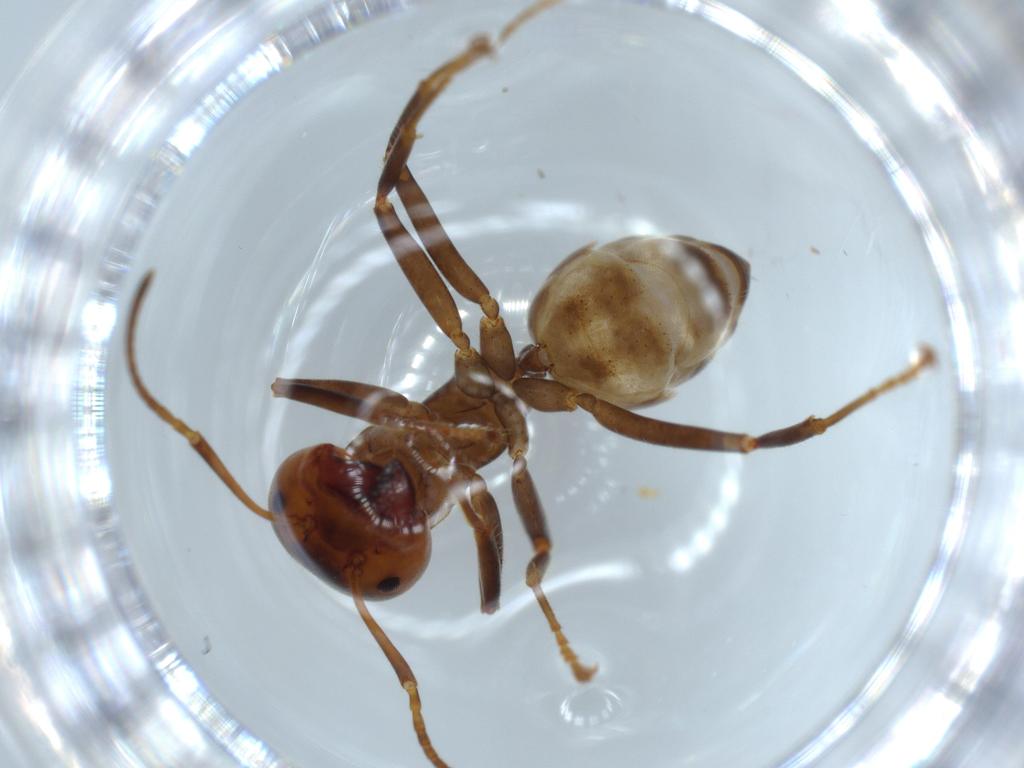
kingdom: Animalia
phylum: Arthropoda
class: Insecta
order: Hymenoptera
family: Formicidae
